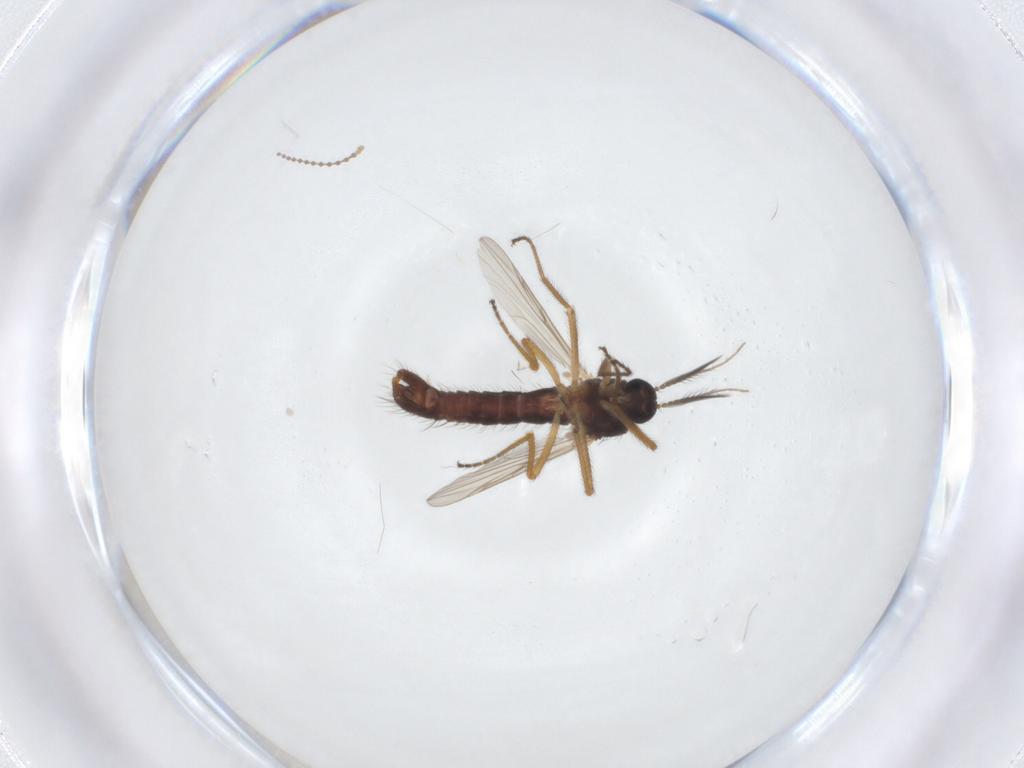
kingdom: Animalia
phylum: Arthropoda
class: Insecta
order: Diptera
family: Ceratopogonidae
